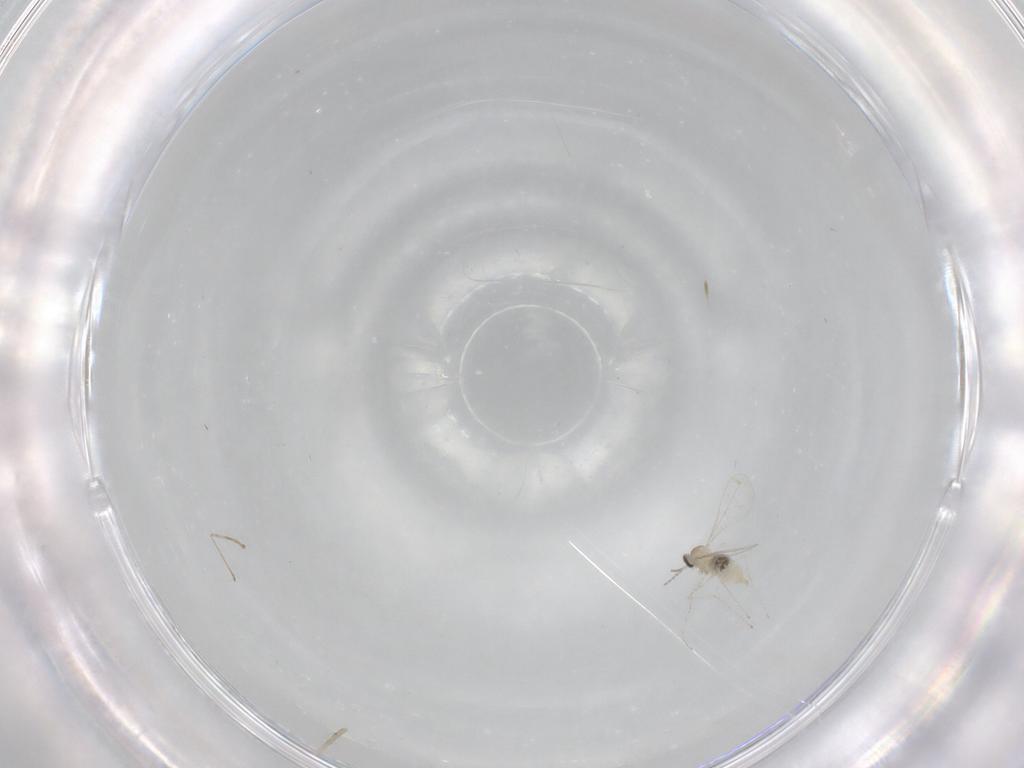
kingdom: Animalia
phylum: Arthropoda
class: Insecta
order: Diptera
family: Cecidomyiidae
